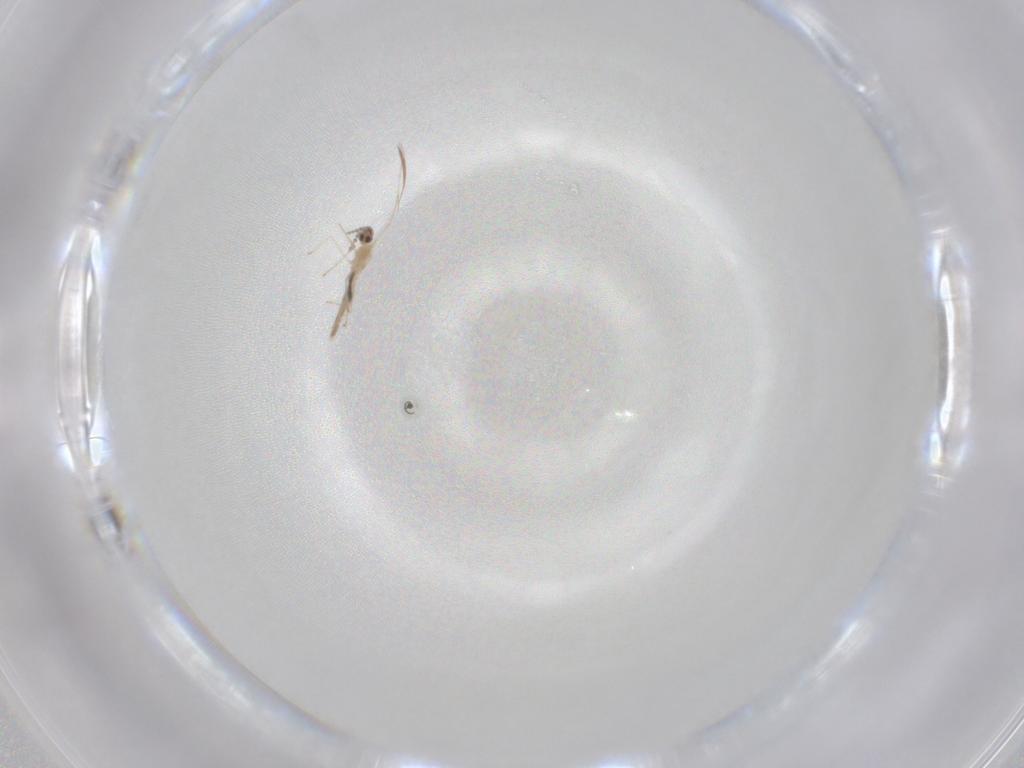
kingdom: Animalia
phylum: Arthropoda
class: Insecta
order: Diptera
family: Cecidomyiidae
